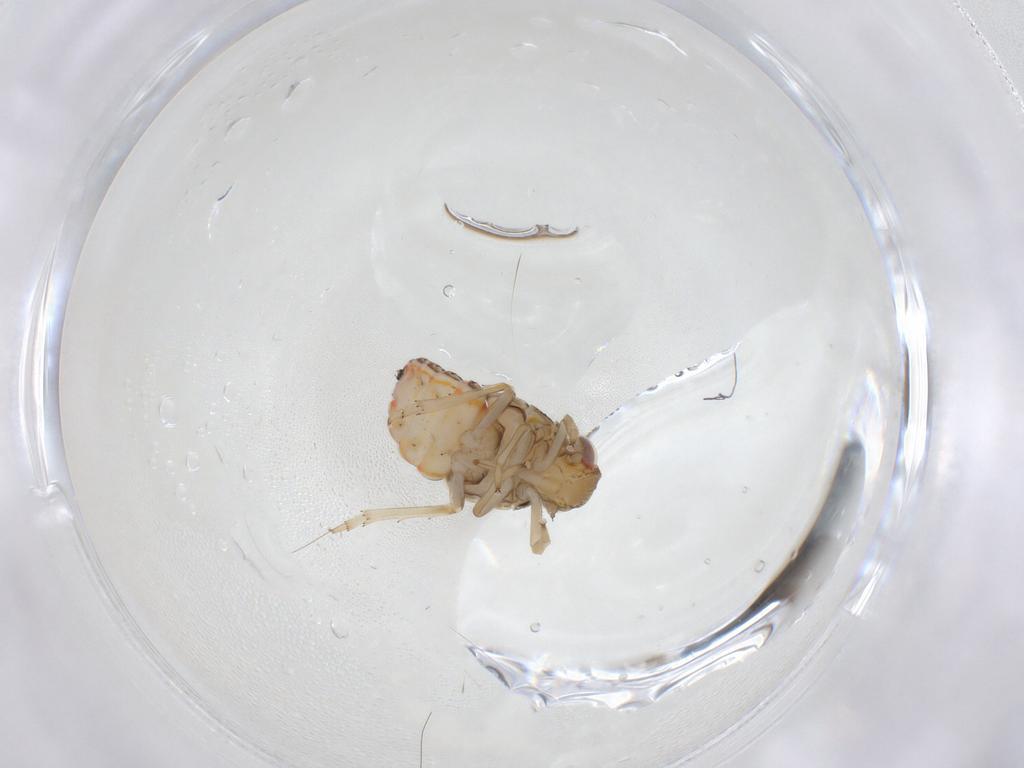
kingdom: Animalia
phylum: Arthropoda
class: Insecta
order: Hemiptera
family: Issidae
